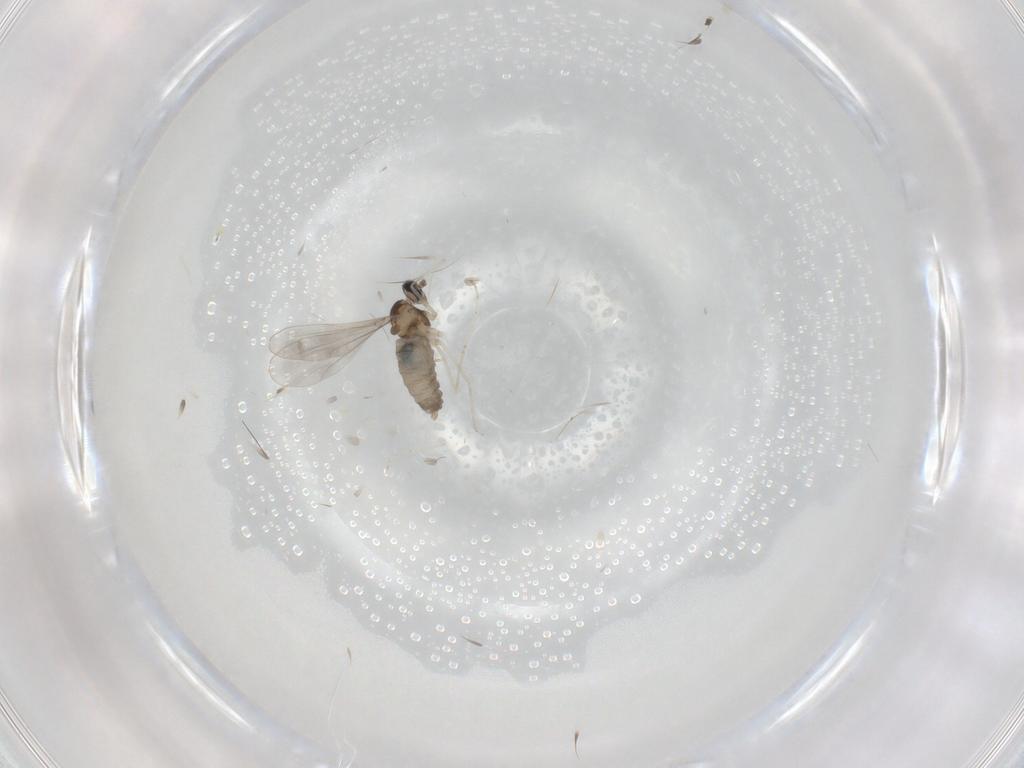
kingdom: Animalia
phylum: Arthropoda
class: Insecta
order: Diptera
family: Cecidomyiidae
